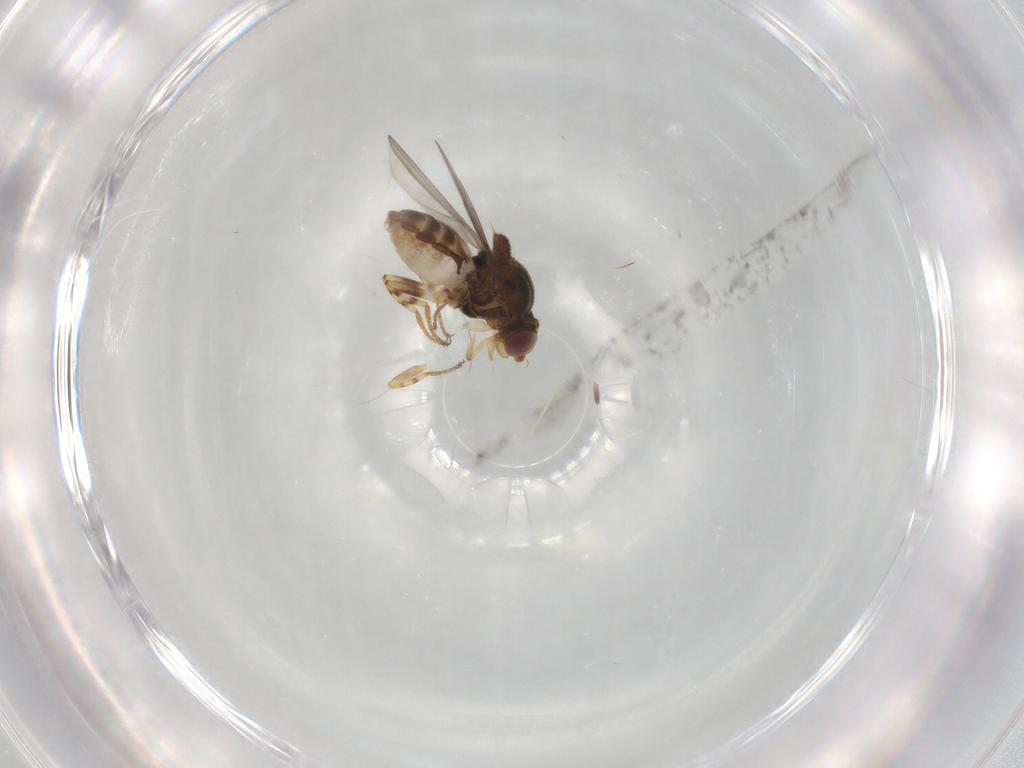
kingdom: Animalia
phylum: Arthropoda
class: Insecta
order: Diptera
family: Chloropidae
